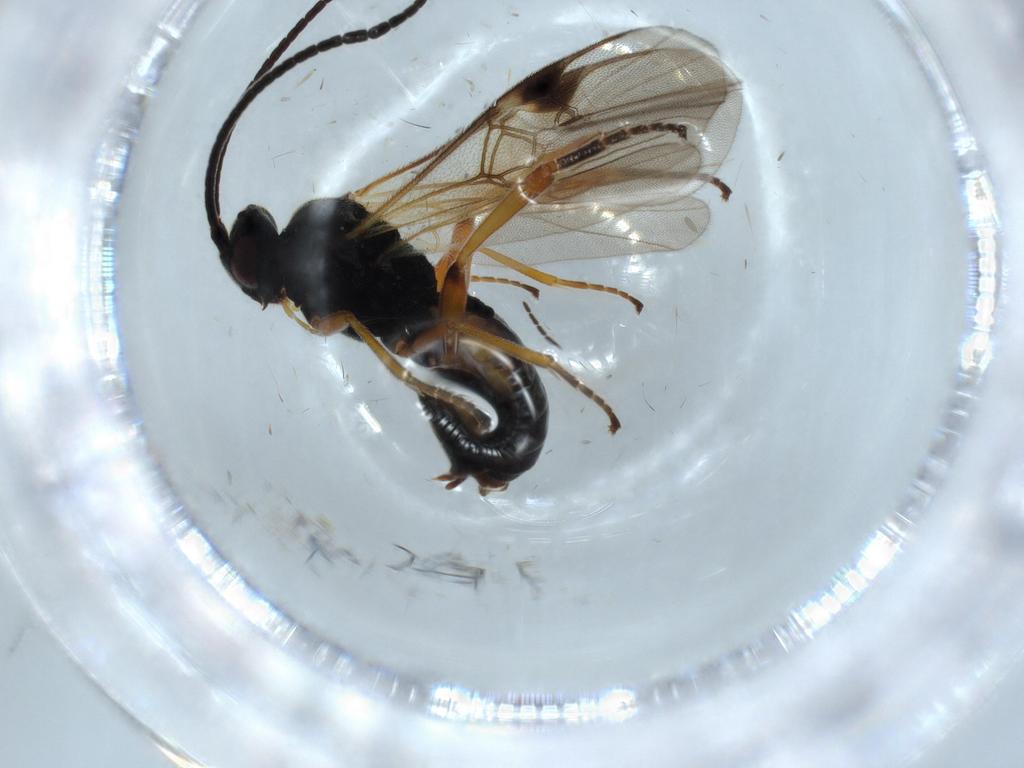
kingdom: Animalia
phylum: Arthropoda
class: Insecta
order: Hymenoptera
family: Braconidae
